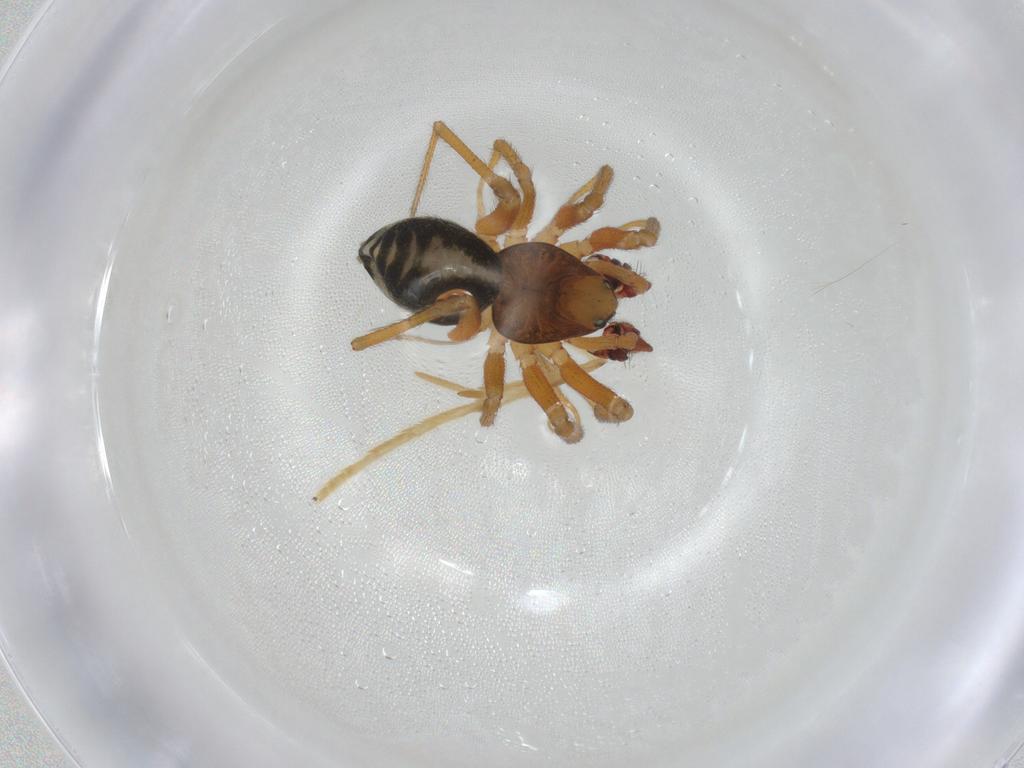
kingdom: Animalia
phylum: Arthropoda
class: Arachnida
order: Araneae
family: Linyphiidae
